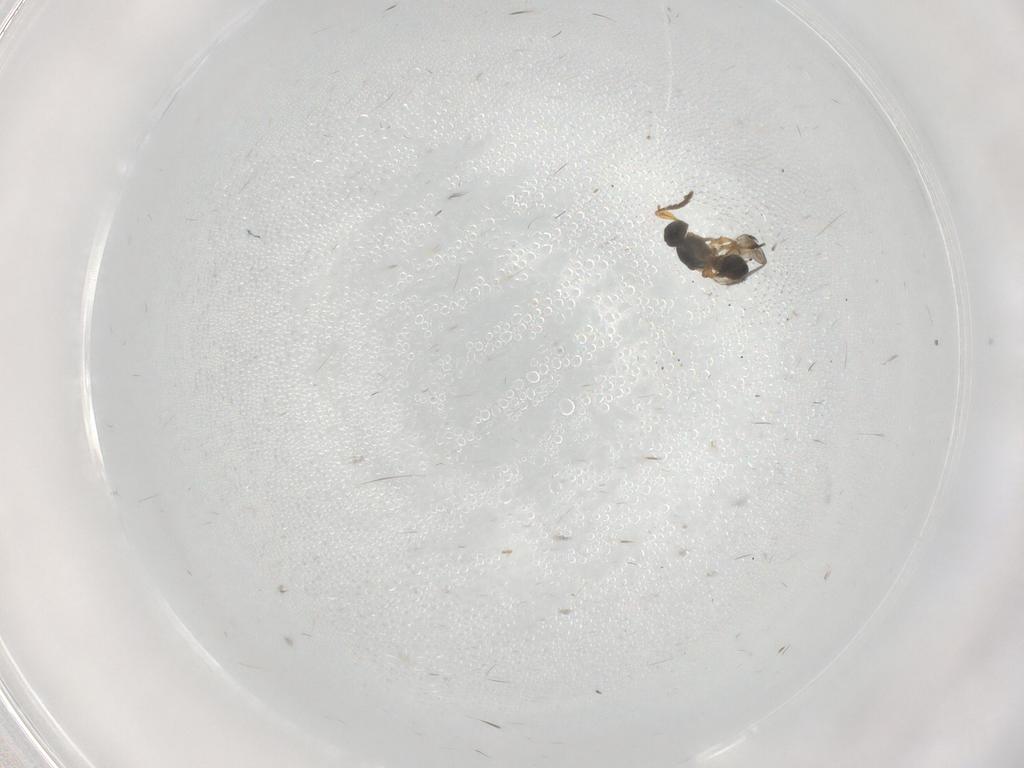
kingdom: Animalia
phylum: Arthropoda
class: Insecta
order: Hymenoptera
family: Platygastridae
